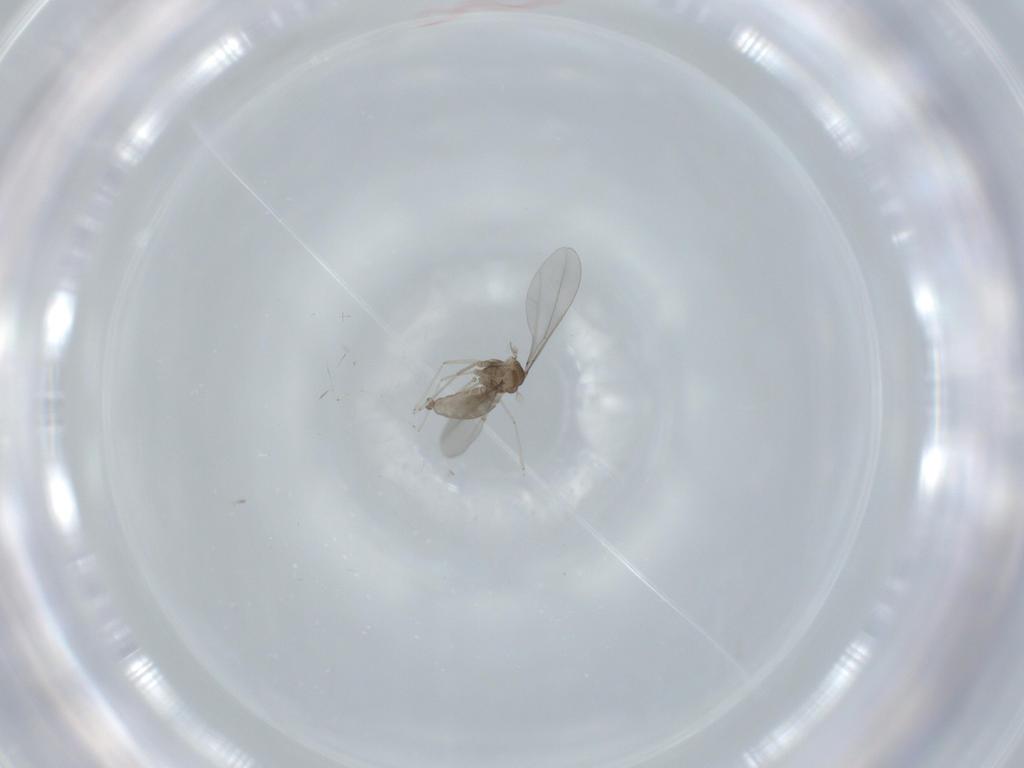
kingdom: Animalia
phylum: Arthropoda
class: Insecta
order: Diptera
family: Cecidomyiidae
